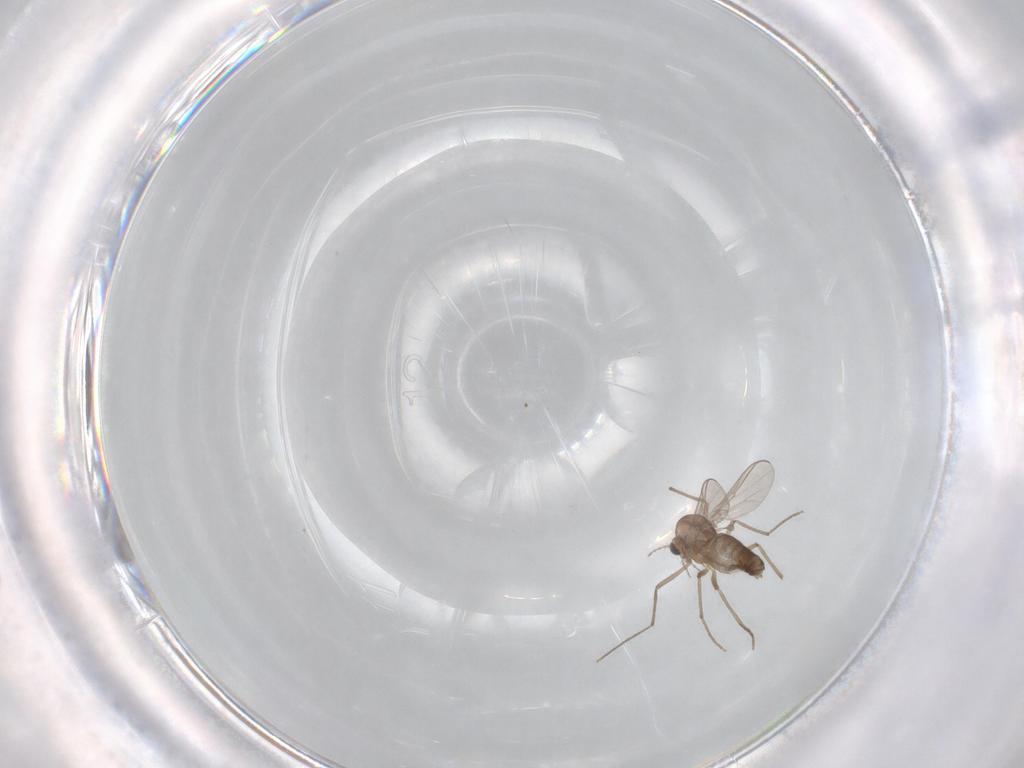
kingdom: Animalia
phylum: Arthropoda
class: Insecta
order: Diptera
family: Chironomidae
